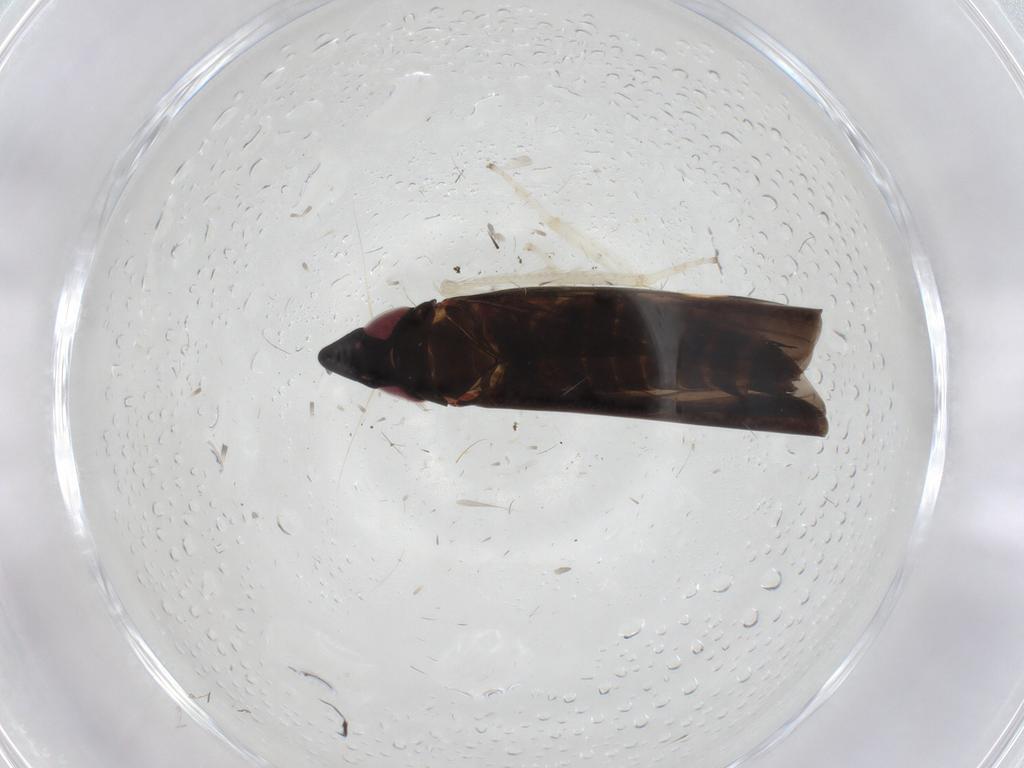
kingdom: Animalia
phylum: Arthropoda
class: Insecta
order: Hemiptera
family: Cicadellidae
